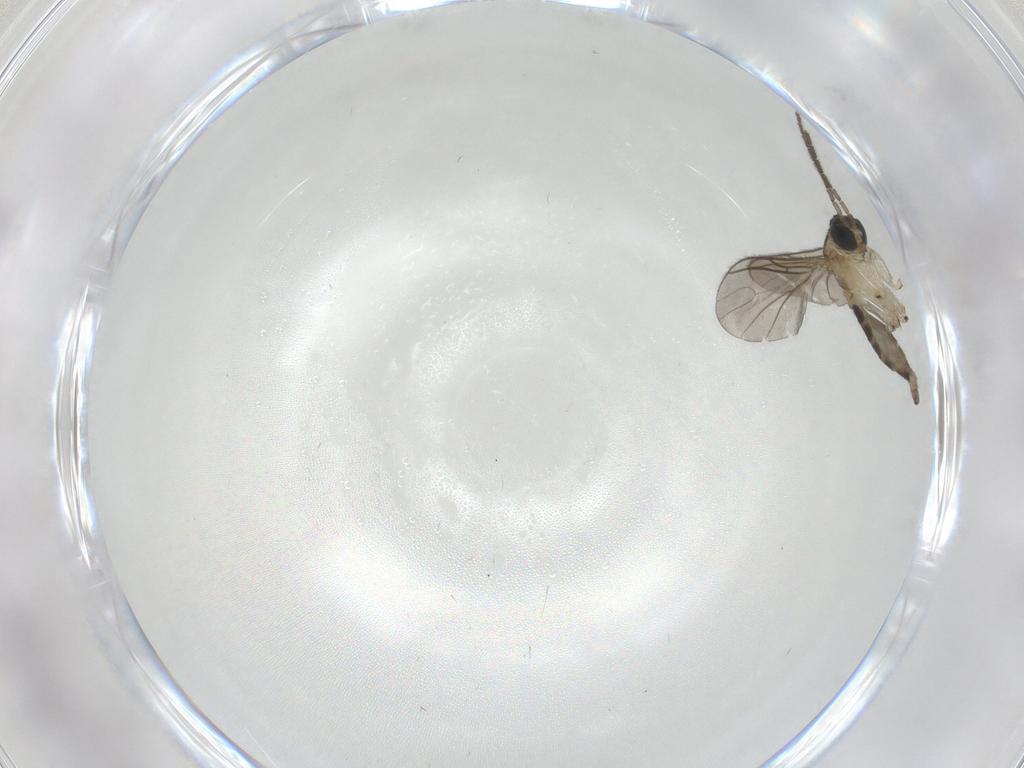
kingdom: Animalia
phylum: Arthropoda
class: Insecta
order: Diptera
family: Sciaridae
